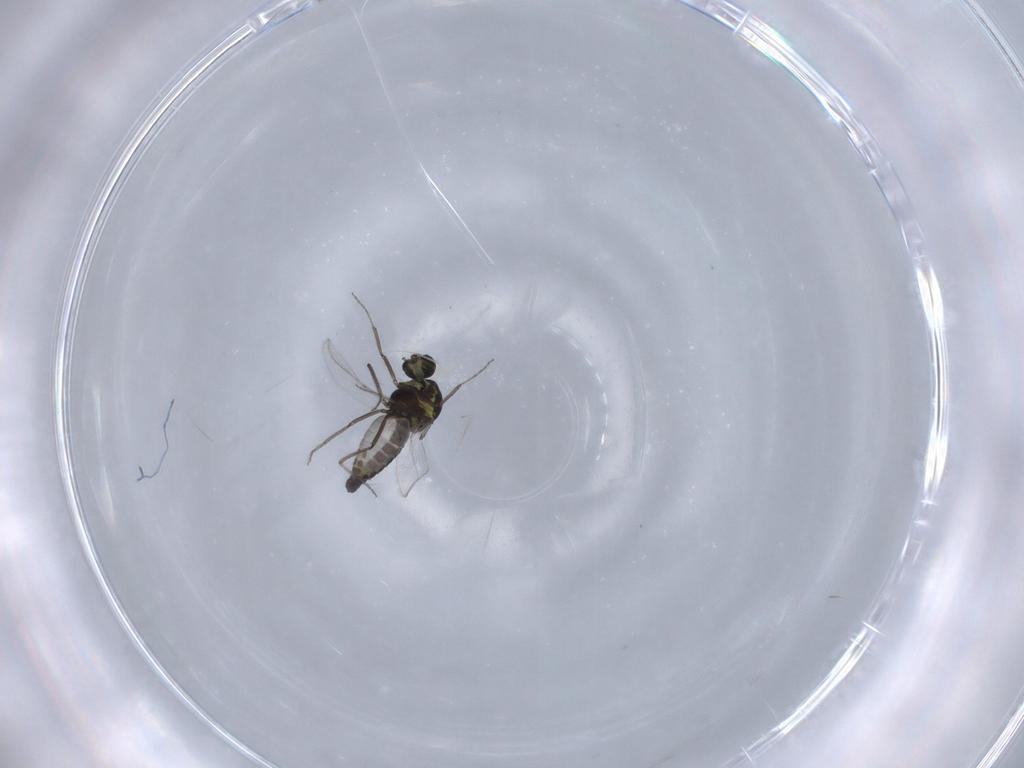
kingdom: Animalia
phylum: Arthropoda
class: Insecta
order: Diptera
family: Ceratopogonidae
